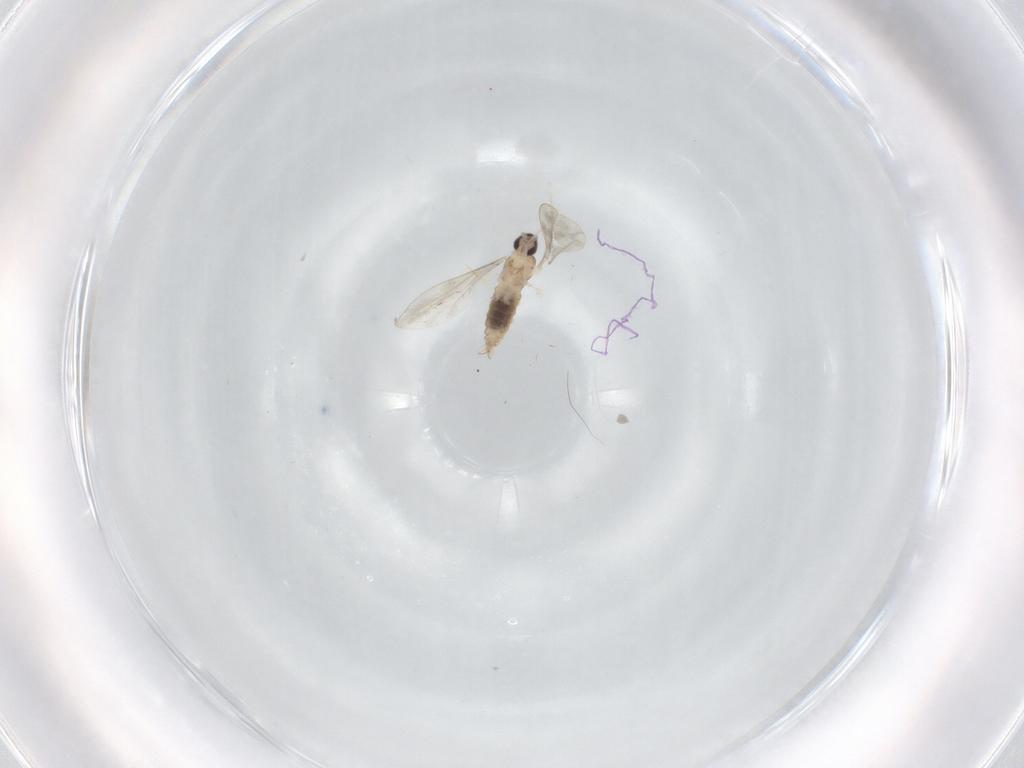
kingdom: Animalia
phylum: Arthropoda
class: Insecta
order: Diptera
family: Cecidomyiidae
